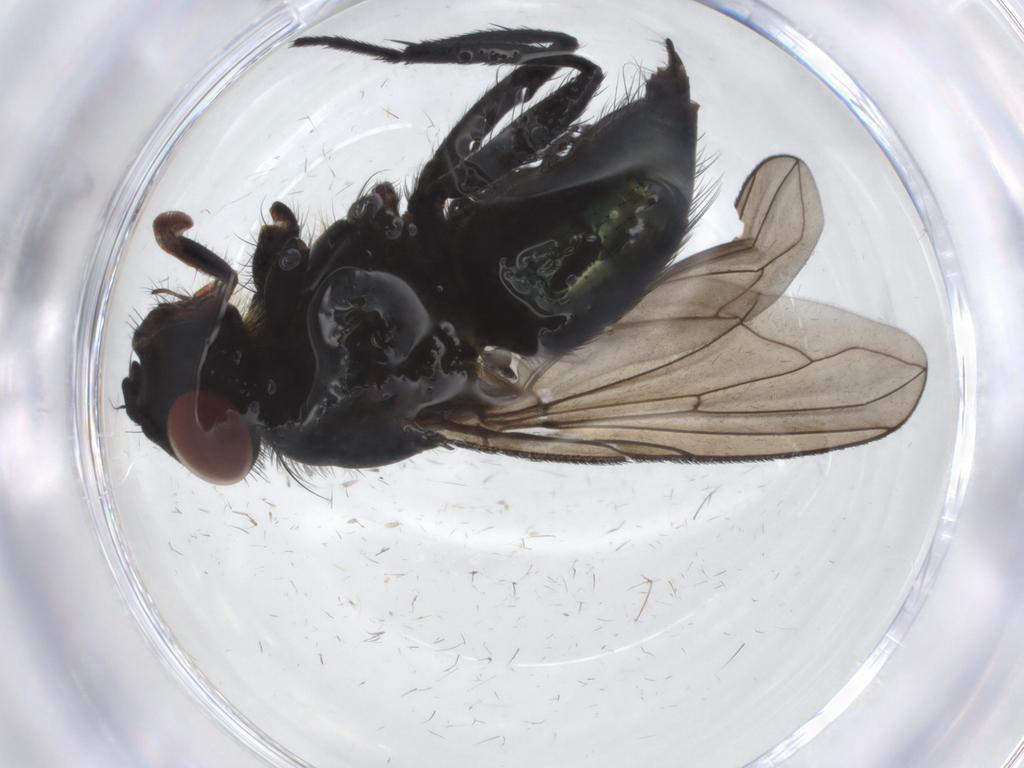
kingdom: Animalia
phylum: Arthropoda
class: Insecta
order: Diptera
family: Polleniidae
